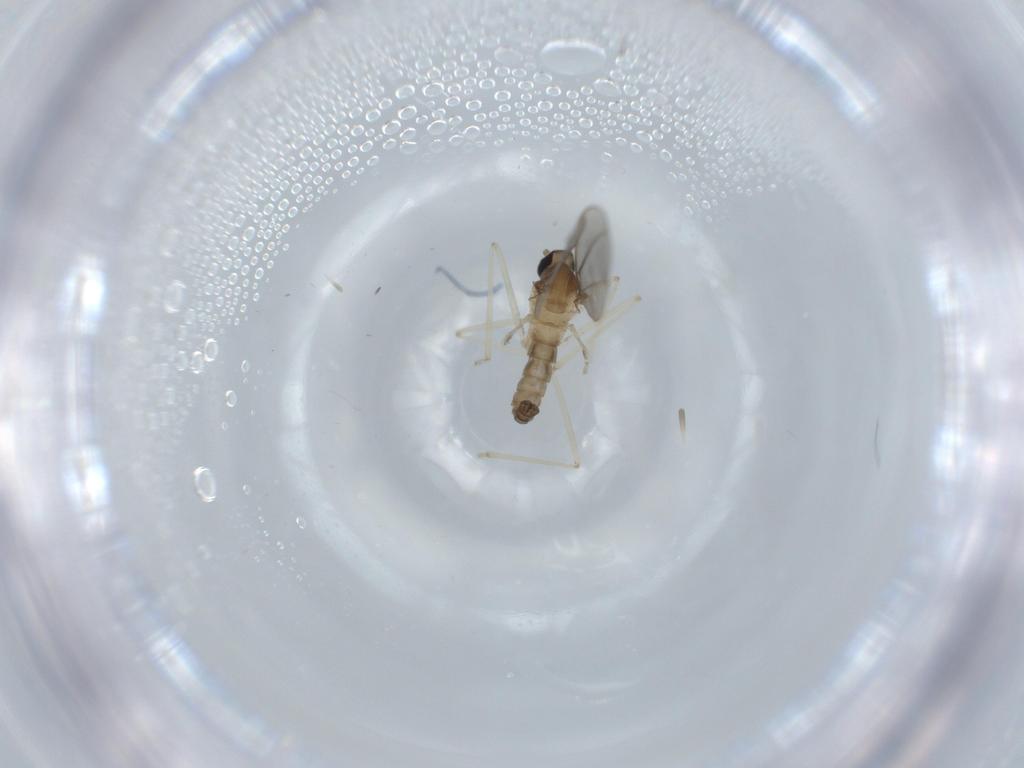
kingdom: Animalia
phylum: Arthropoda
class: Insecta
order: Diptera
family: Cecidomyiidae
